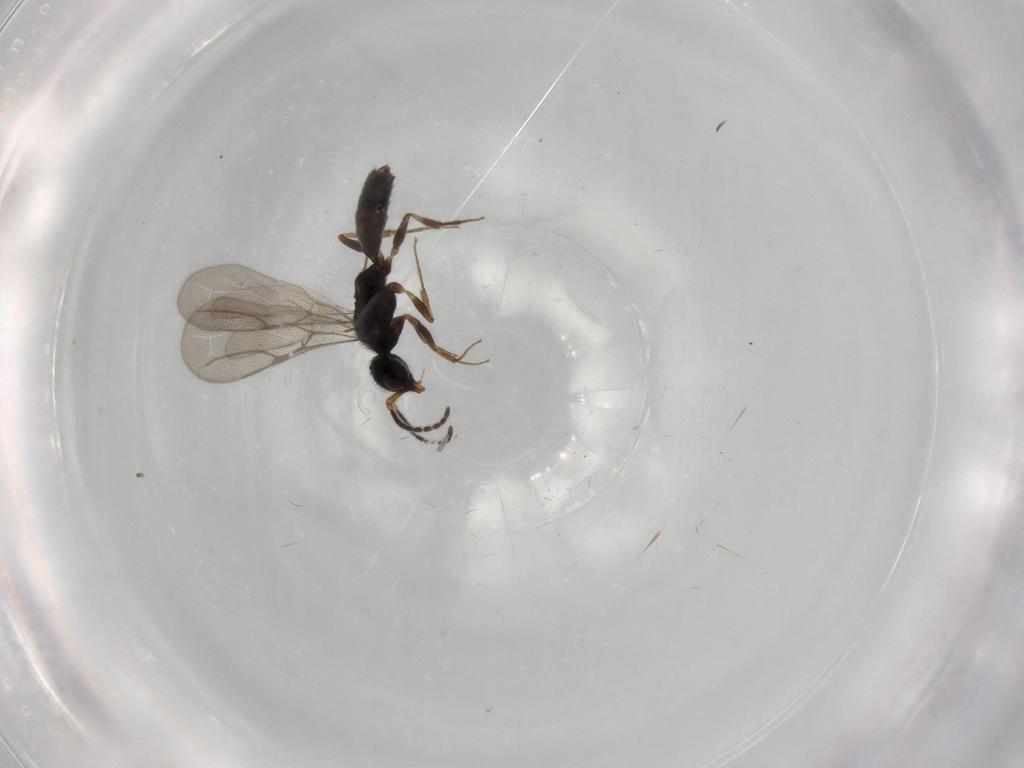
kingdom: Animalia
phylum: Arthropoda
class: Insecta
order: Hymenoptera
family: Bethylidae
